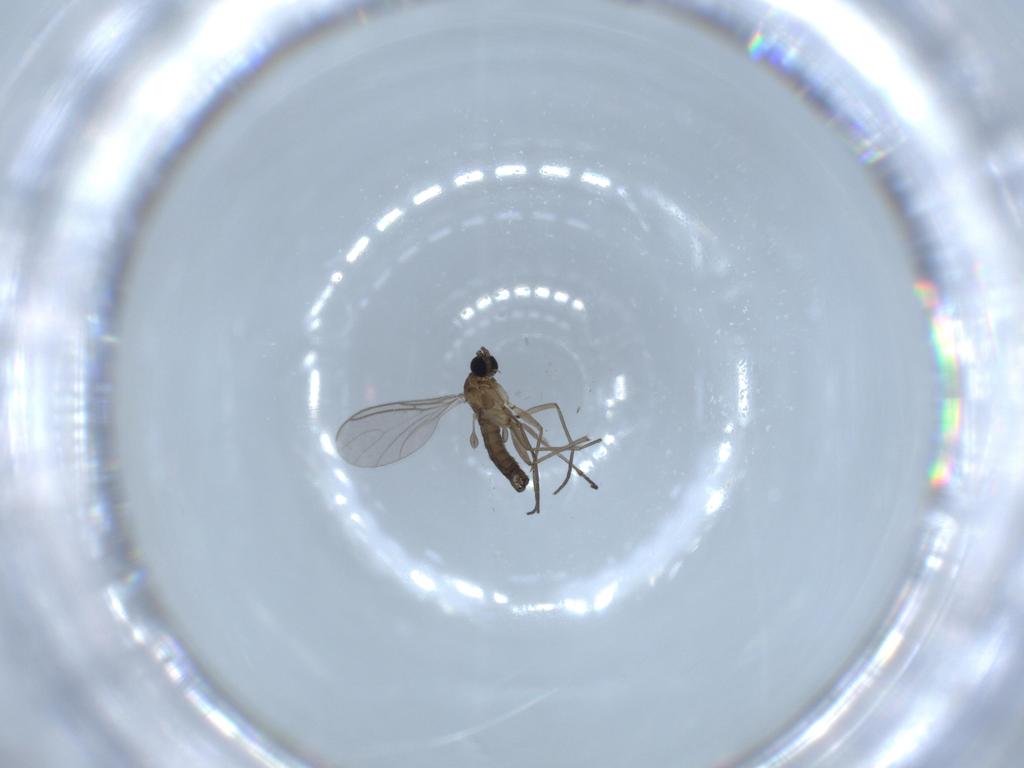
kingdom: Animalia
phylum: Arthropoda
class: Insecta
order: Diptera
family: Sciaridae
